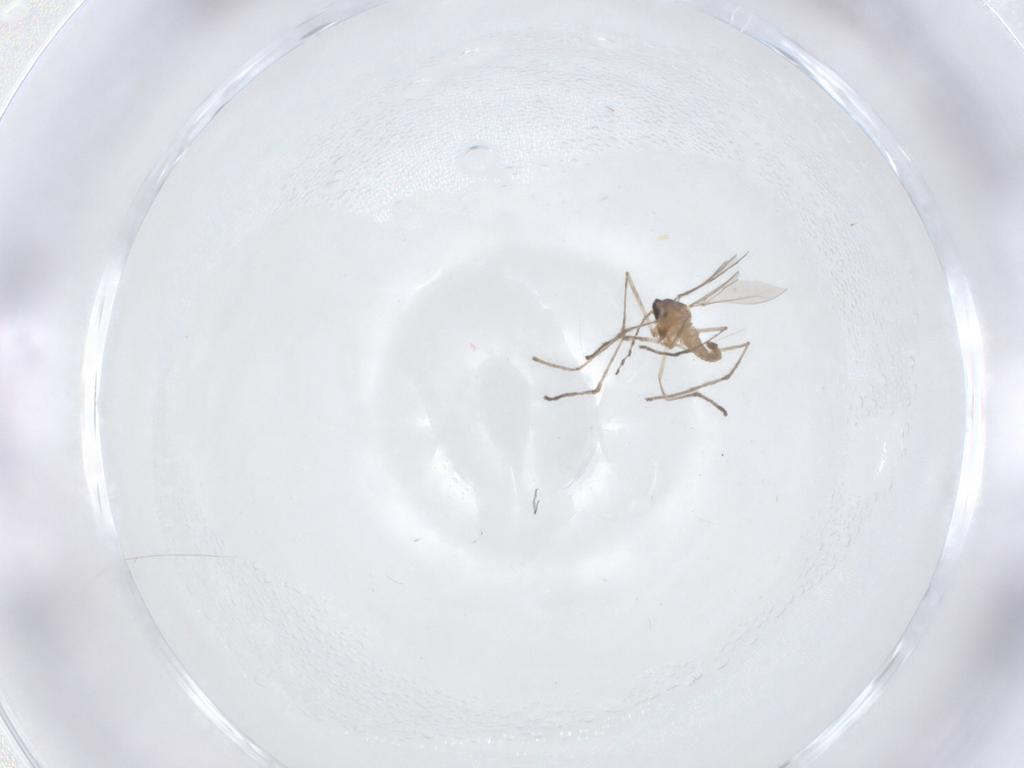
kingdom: Animalia
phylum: Arthropoda
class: Insecta
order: Diptera
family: Cecidomyiidae
